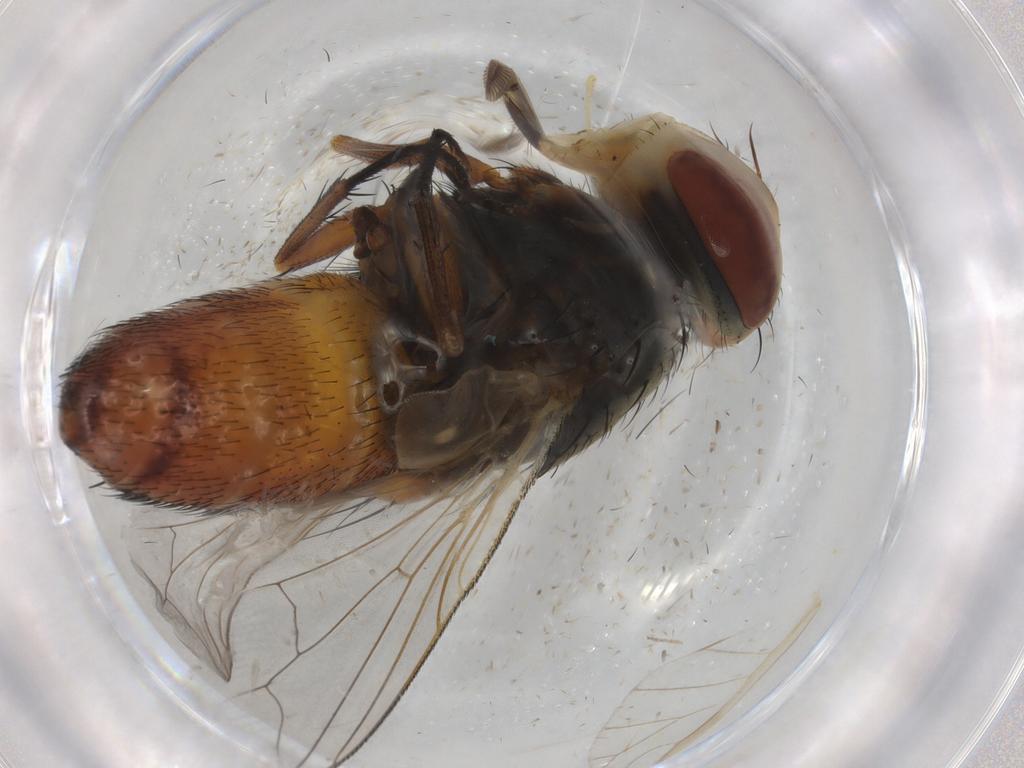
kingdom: Animalia
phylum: Arthropoda
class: Insecta
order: Diptera
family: Sarcophagidae
